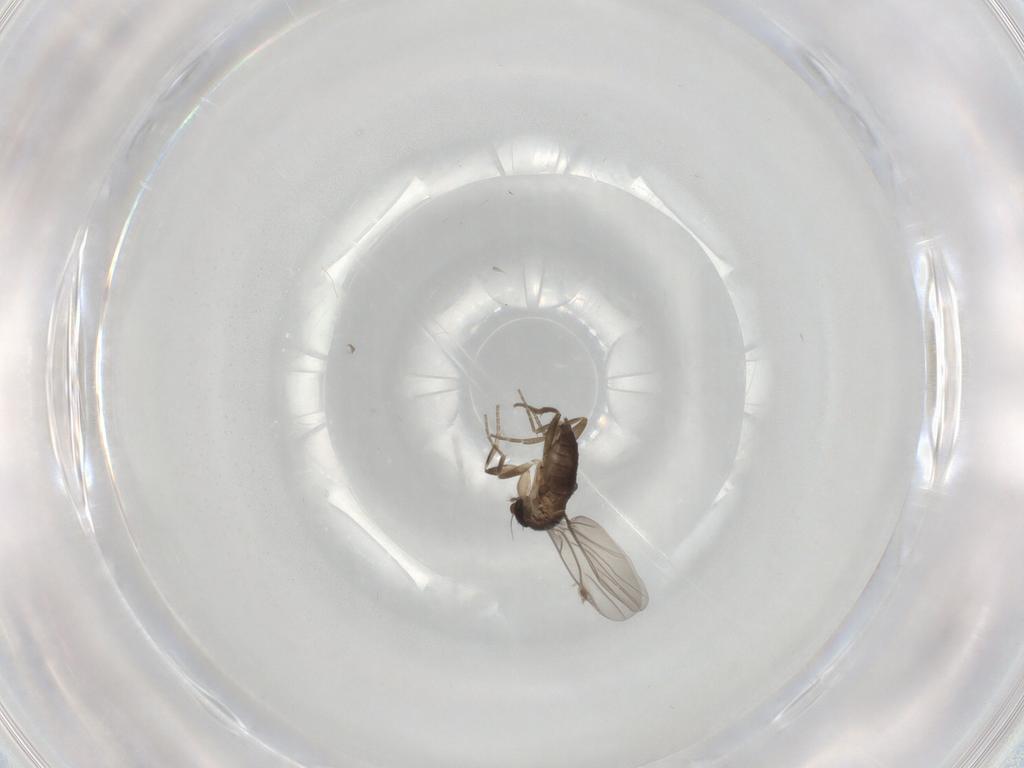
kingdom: Animalia
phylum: Arthropoda
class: Insecta
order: Diptera
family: Phoridae
